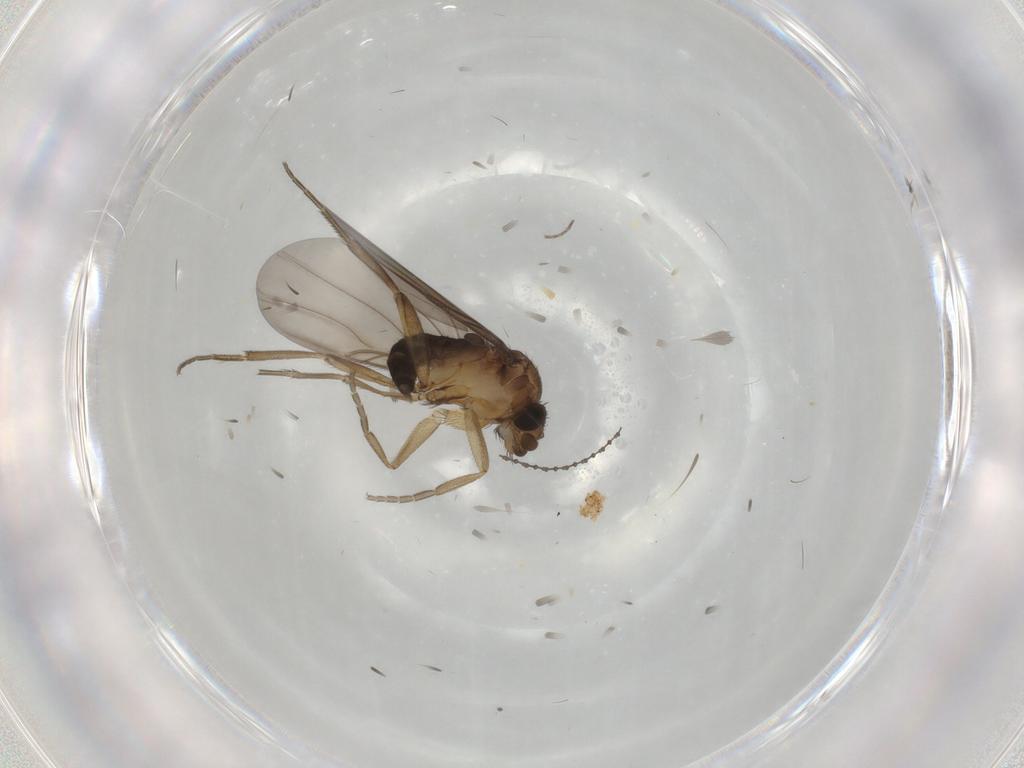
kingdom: Animalia
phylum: Arthropoda
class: Insecta
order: Diptera
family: Phoridae
